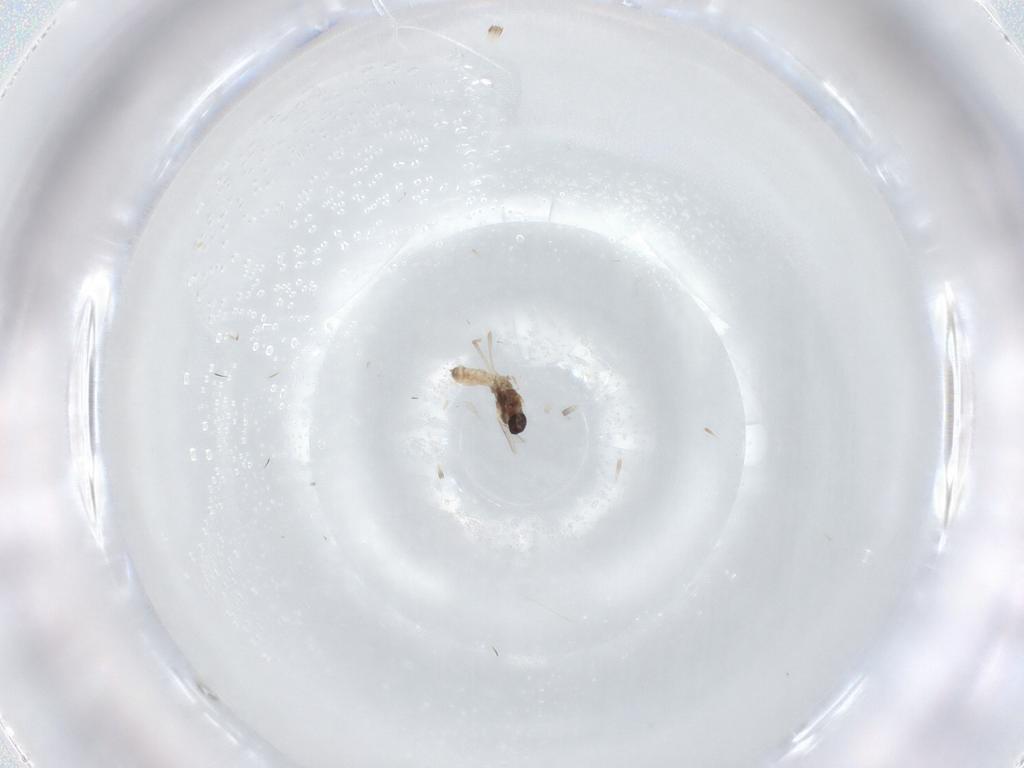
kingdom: Animalia
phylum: Arthropoda
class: Insecta
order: Diptera
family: Cecidomyiidae
